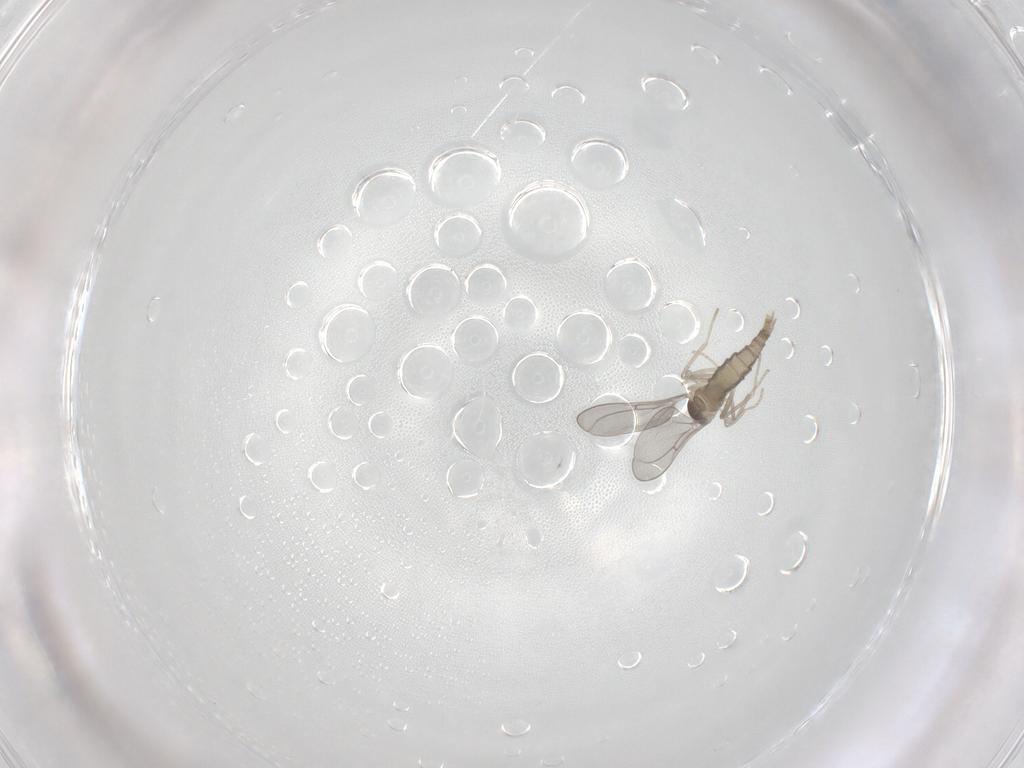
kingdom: Animalia
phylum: Arthropoda
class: Insecta
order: Diptera
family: Cecidomyiidae
